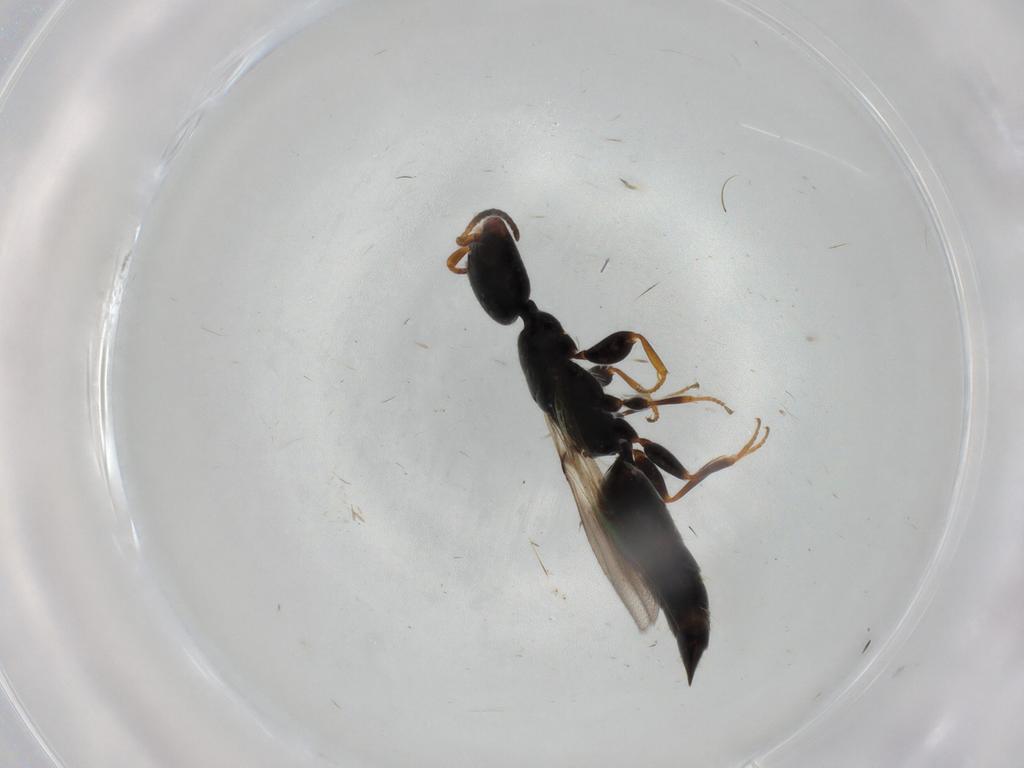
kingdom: Animalia
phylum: Arthropoda
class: Insecta
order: Hymenoptera
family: Bethylidae
